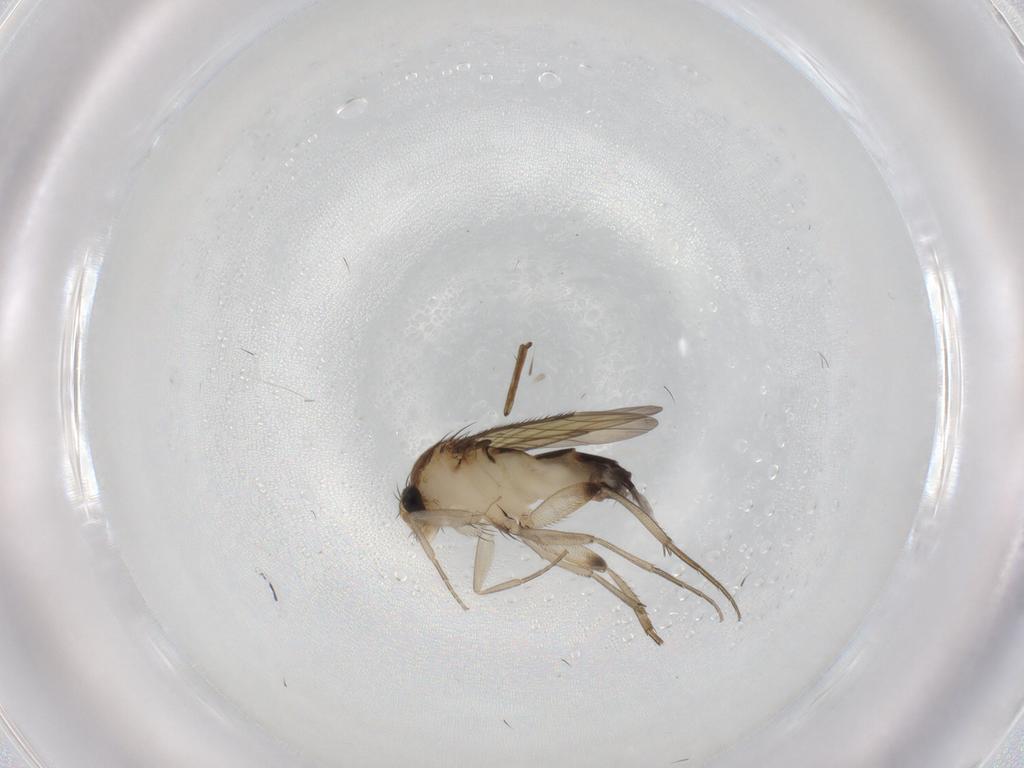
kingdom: Animalia
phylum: Arthropoda
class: Insecta
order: Diptera
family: Phoridae
